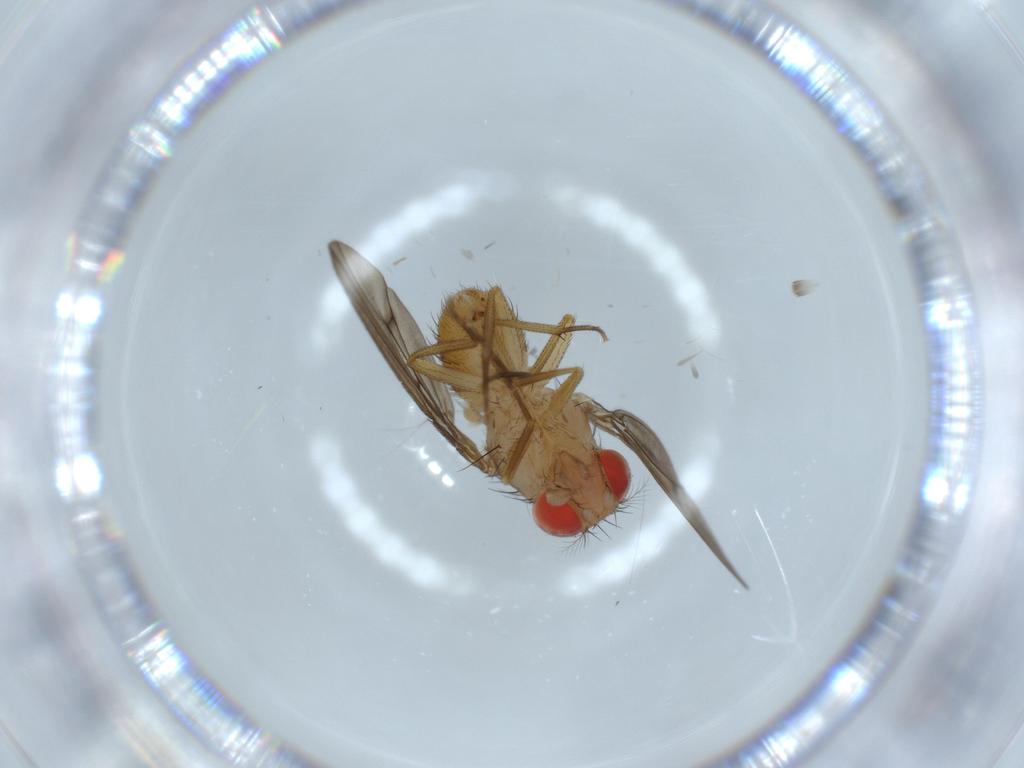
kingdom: Animalia
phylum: Arthropoda
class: Insecta
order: Diptera
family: Drosophilidae
